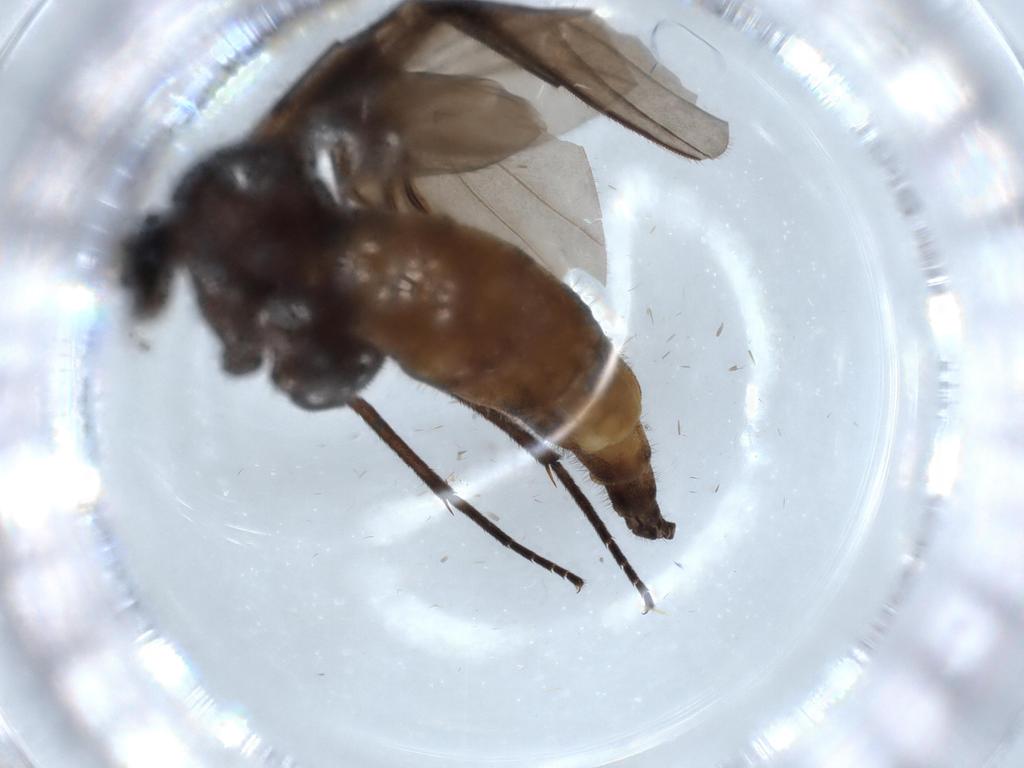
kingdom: Animalia
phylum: Arthropoda
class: Insecta
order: Diptera
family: Sciaridae
